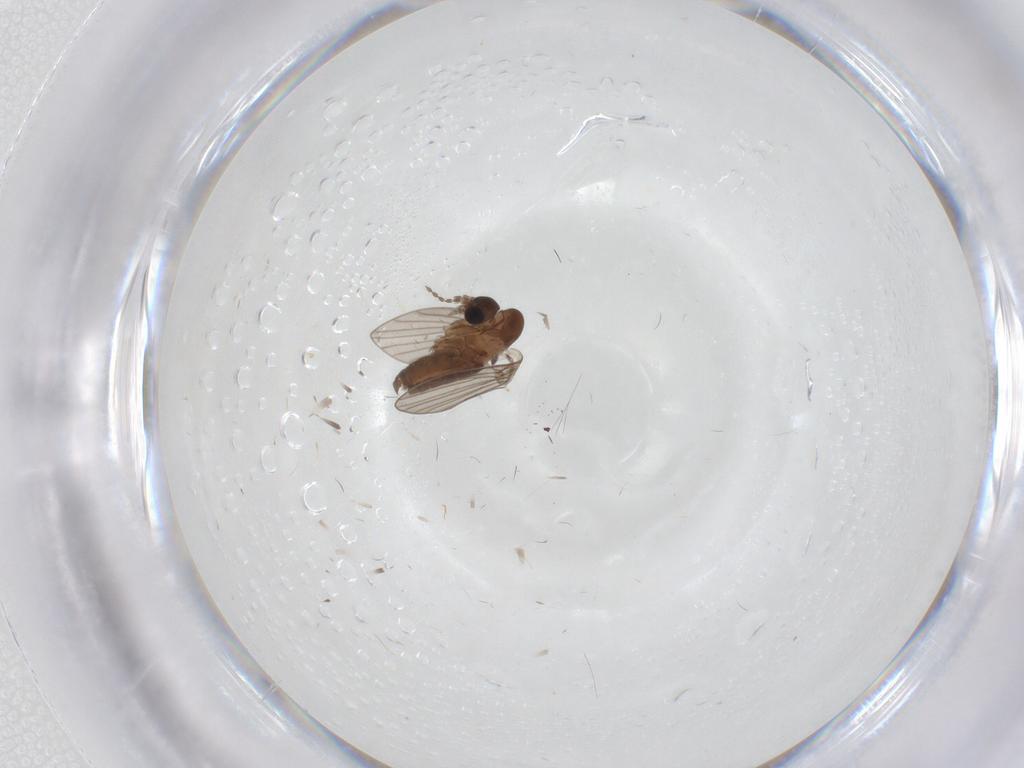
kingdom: Animalia
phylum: Arthropoda
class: Insecta
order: Diptera
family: Psychodidae
